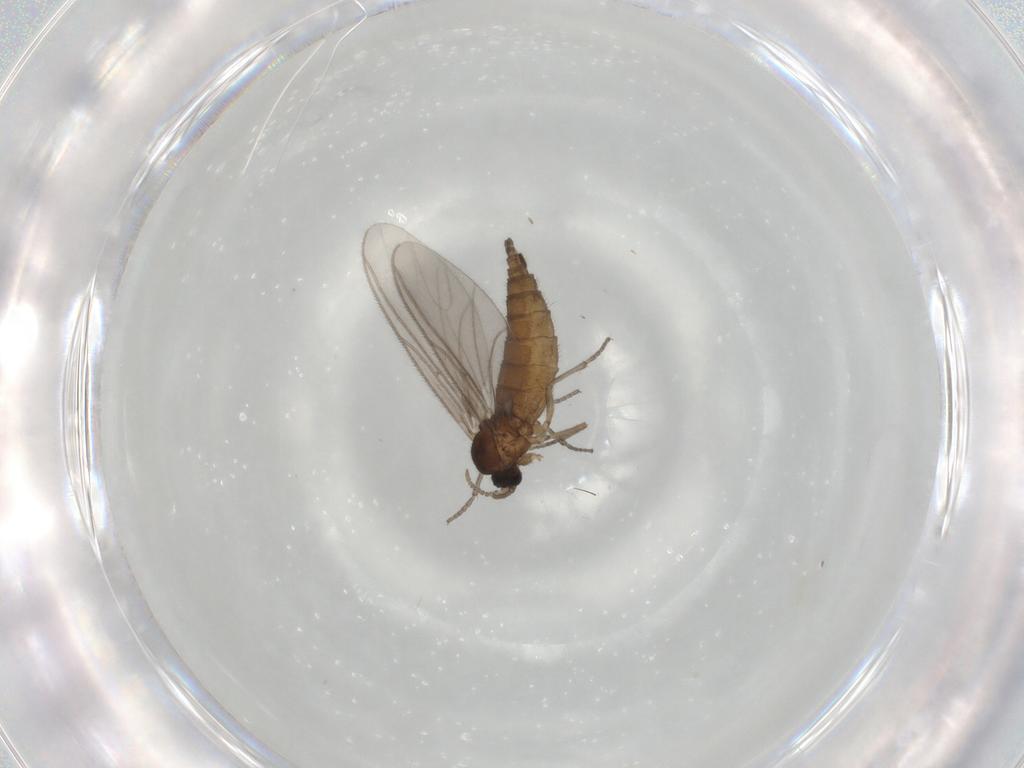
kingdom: Animalia
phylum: Arthropoda
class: Insecta
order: Diptera
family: Sciaridae
